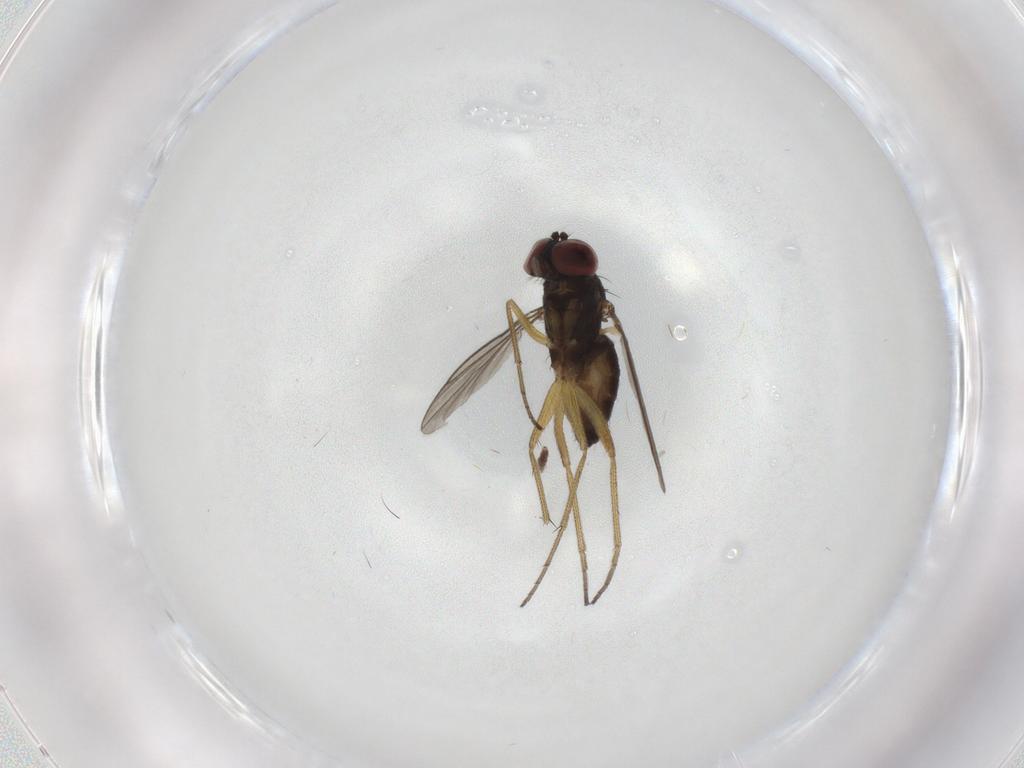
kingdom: Animalia
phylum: Arthropoda
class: Insecta
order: Diptera
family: Dolichopodidae
